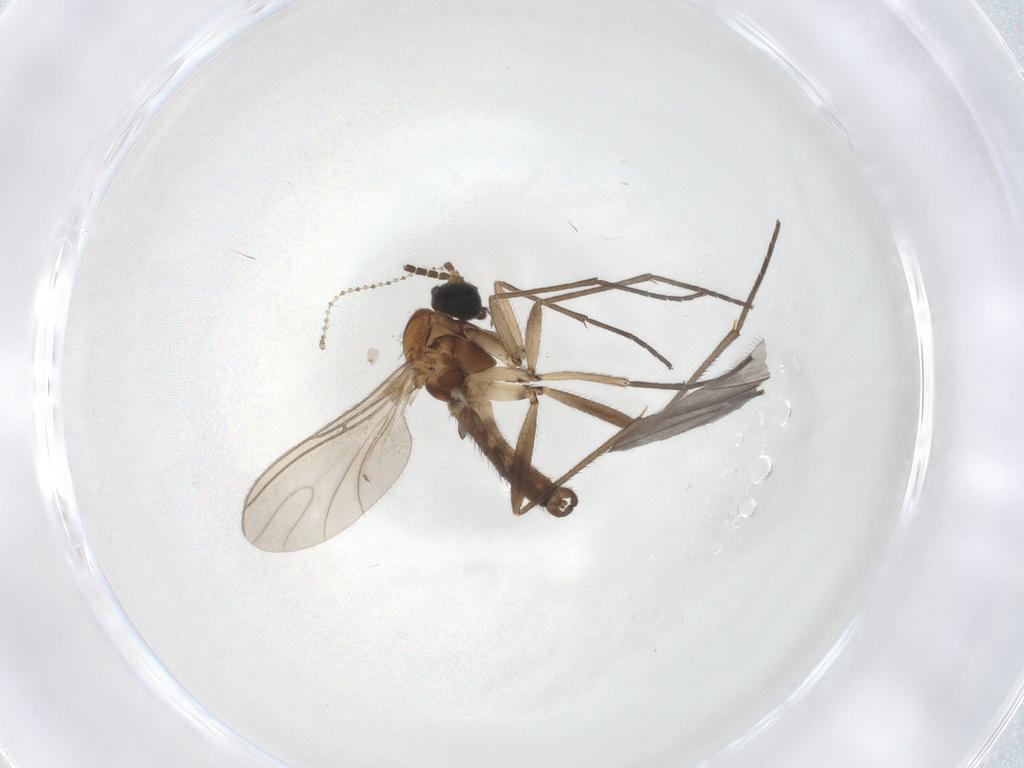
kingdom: Animalia
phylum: Arthropoda
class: Insecta
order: Diptera
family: Sciaridae
